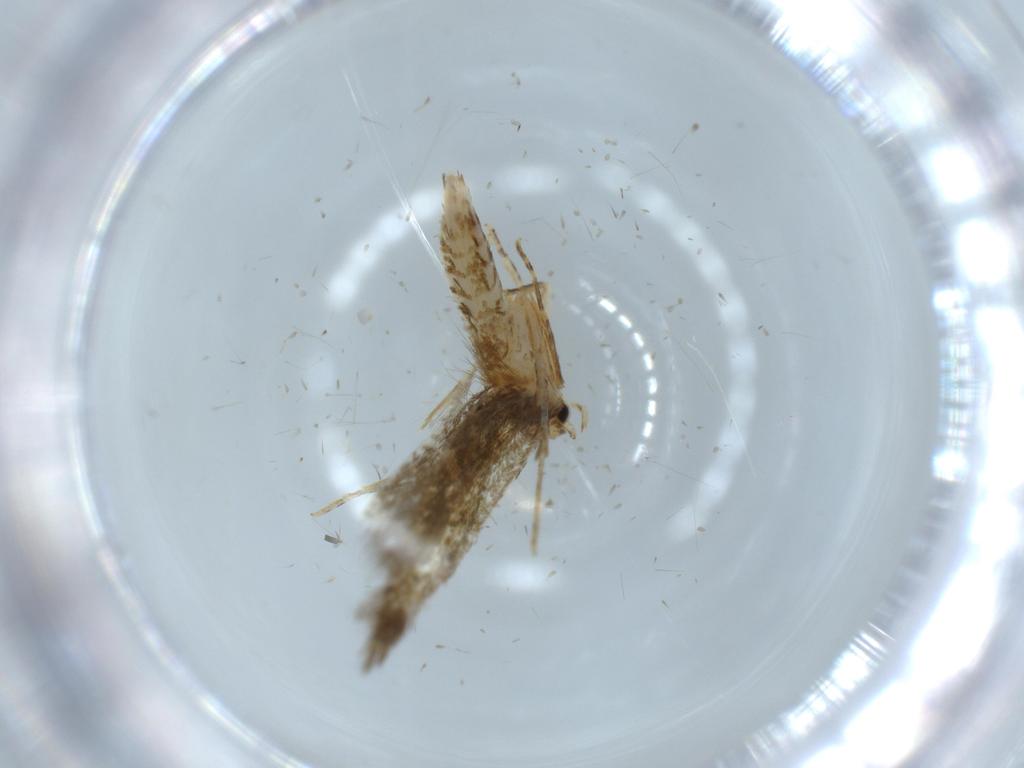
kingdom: Animalia
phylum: Arthropoda
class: Insecta
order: Lepidoptera
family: Tineidae
